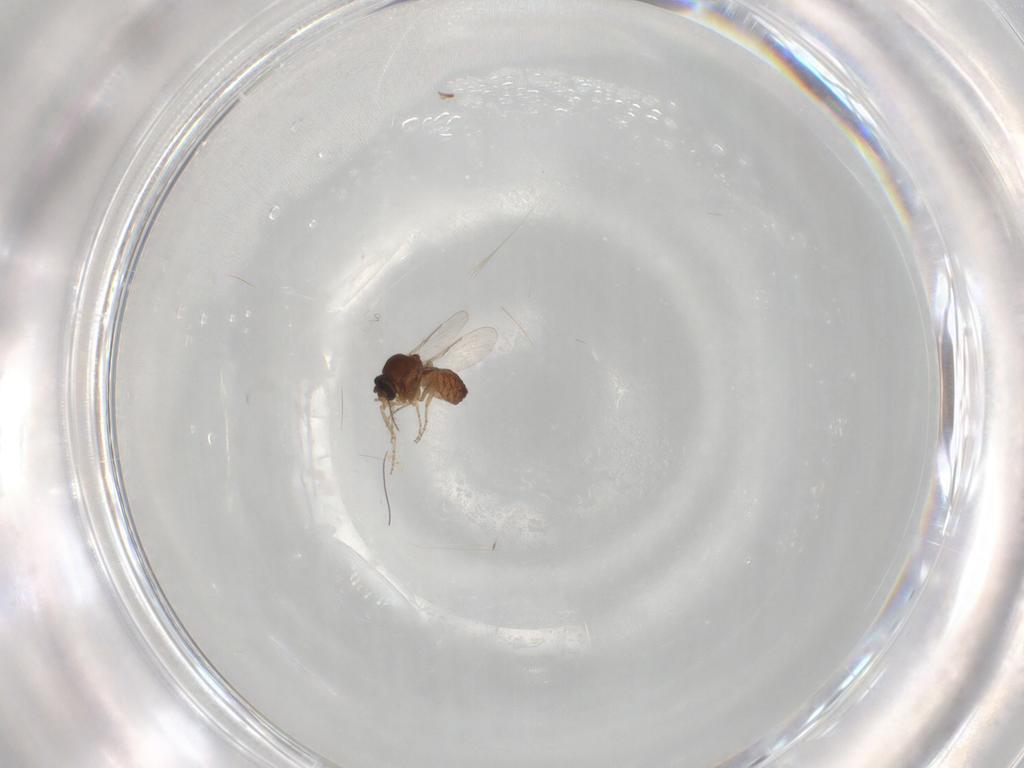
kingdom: Animalia
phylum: Arthropoda
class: Insecta
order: Diptera
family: Ceratopogonidae
